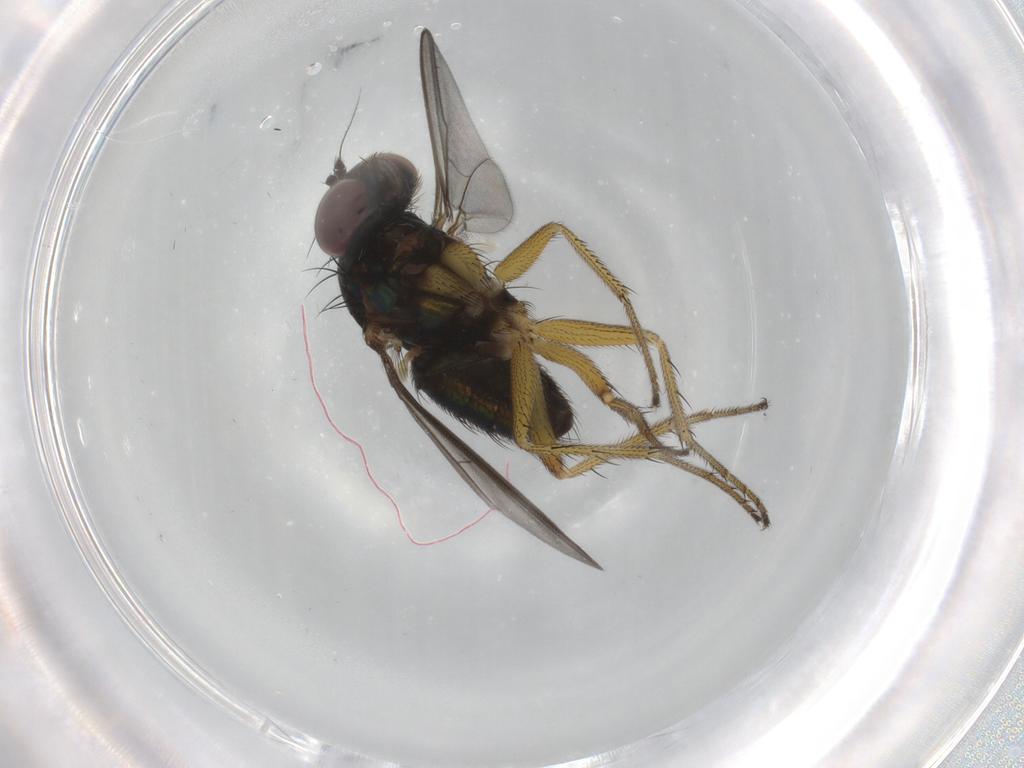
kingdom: Animalia
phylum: Arthropoda
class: Insecta
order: Diptera
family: Dolichopodidae
